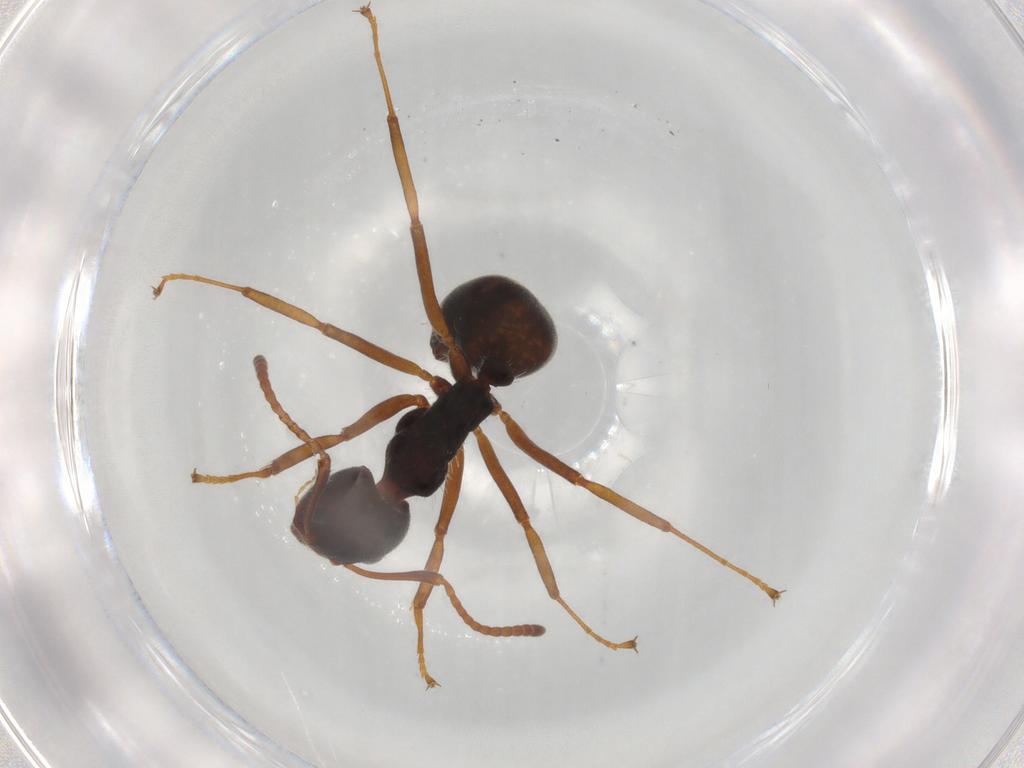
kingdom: Animalia
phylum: Arthropoda
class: Insecta
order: Hymenoptera
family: Formicidae
